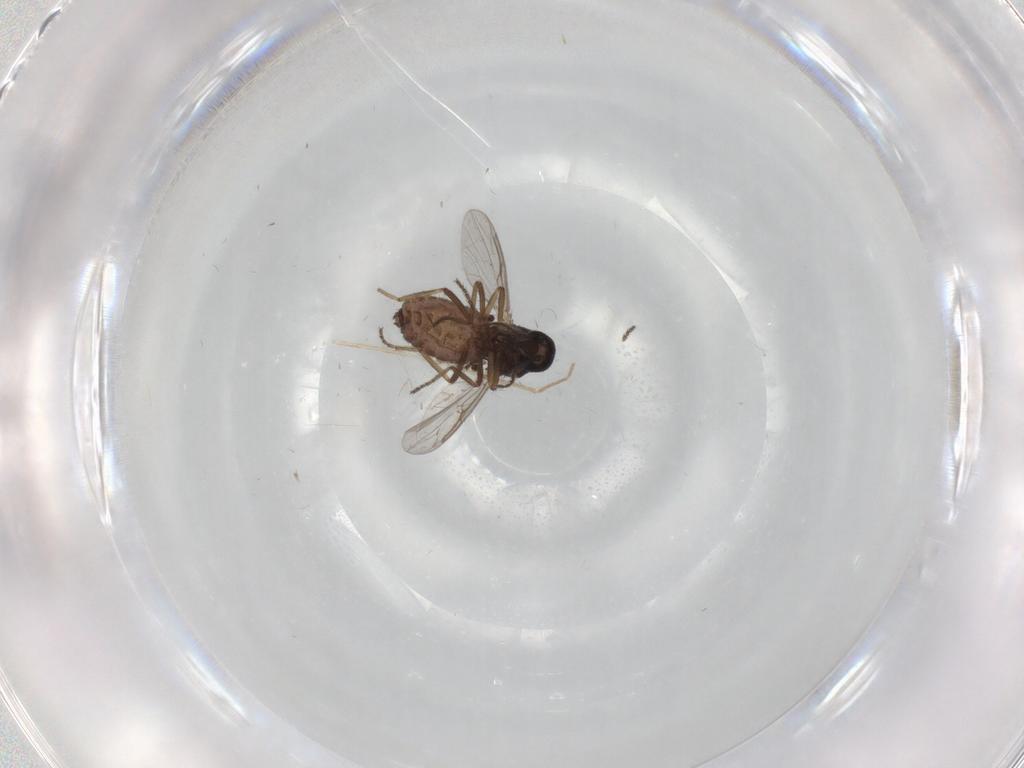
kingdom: Animalia
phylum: Arthropoda
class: Insecta
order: Diptera
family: Ceratopogonidae
